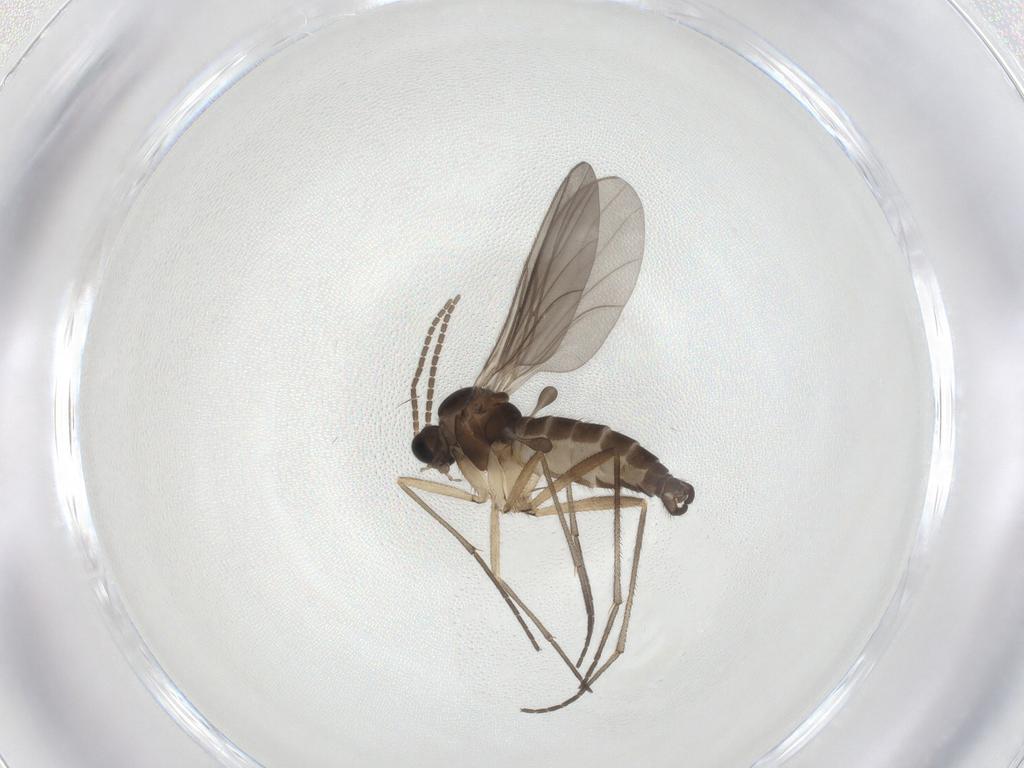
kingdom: Animalia
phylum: Arthropoda
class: Insecta
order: Diptera
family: Sciaridae
